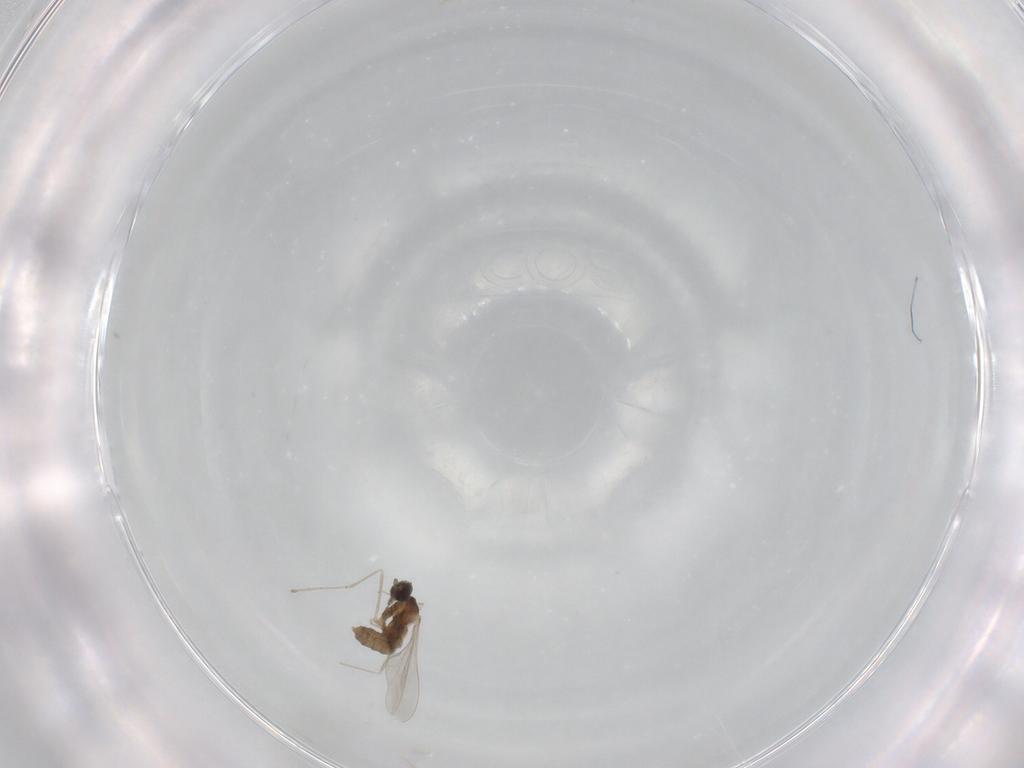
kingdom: Animalia
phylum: Arthropoda
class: Insecta
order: Diptera
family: Cecidomyiidae
